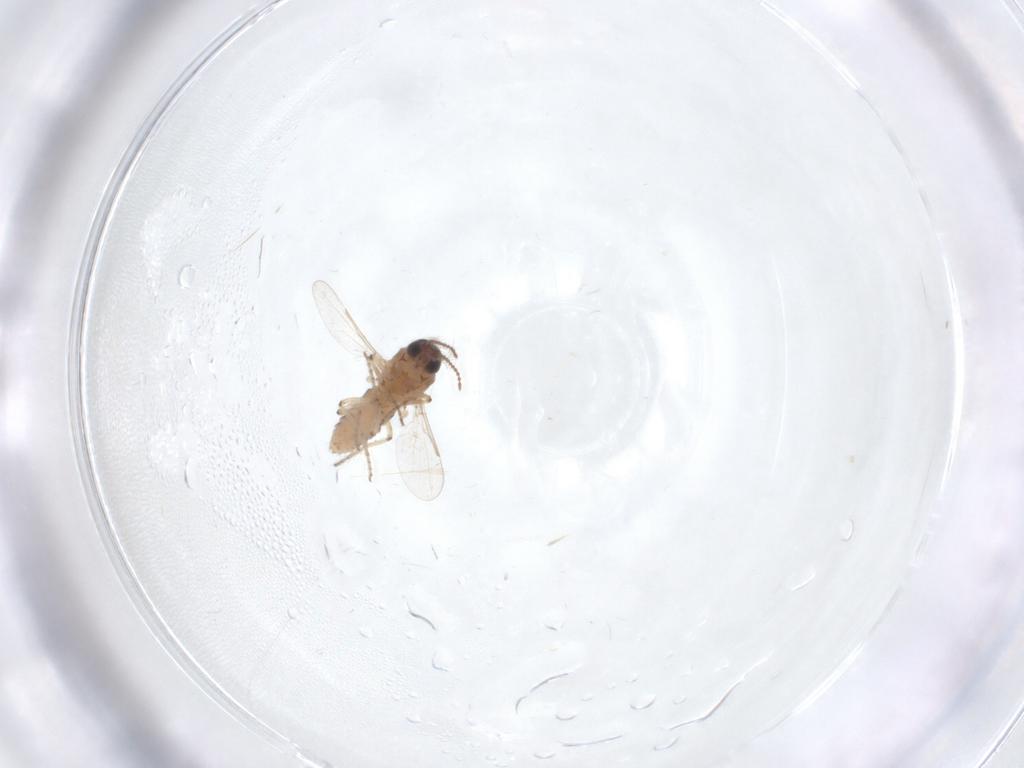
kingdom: Animalia
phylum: Arthropoda
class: Insecta
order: Diptera
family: Ceratopogonidae
